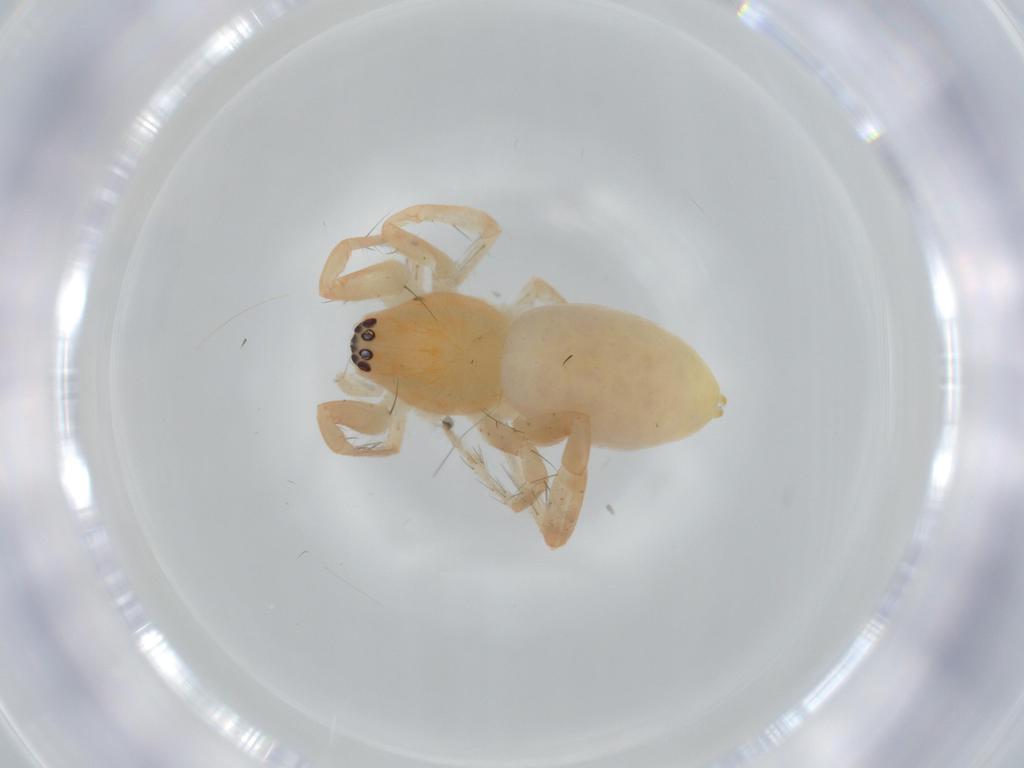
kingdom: Animalia
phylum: Arthropoda
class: Arachnida
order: Araneae
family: Anyphaenidae
